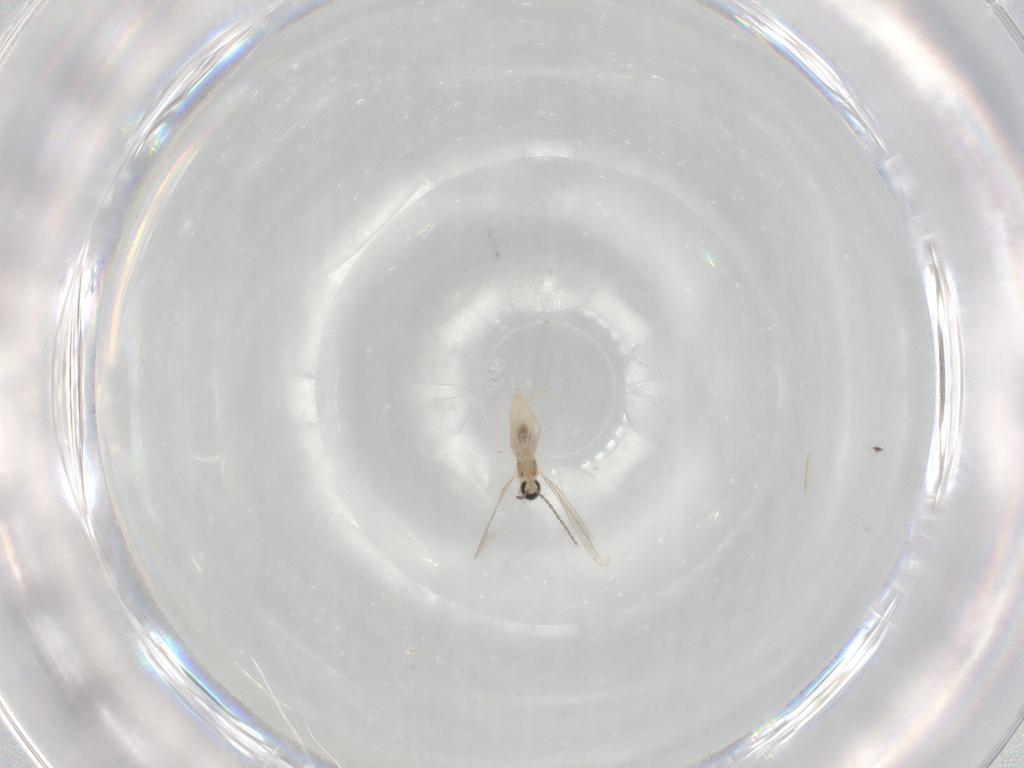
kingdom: Animalia
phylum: Arthropoda
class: Insecta
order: Diptera
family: Cecidomyiidae
